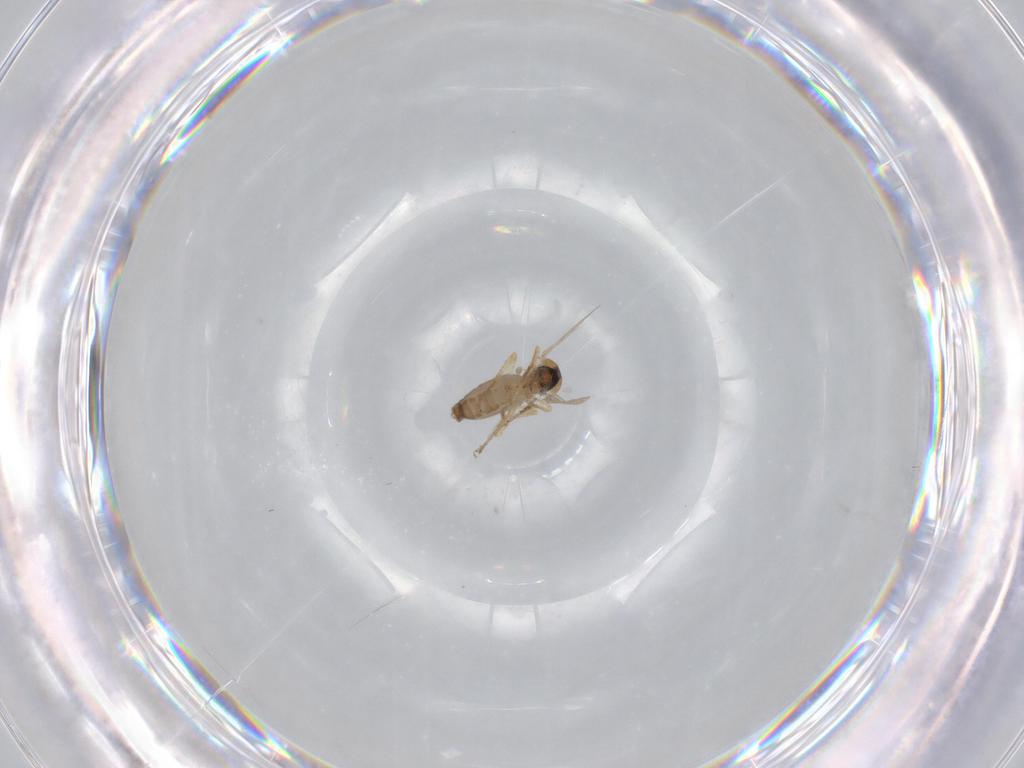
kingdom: Animalia
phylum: Arthropoda
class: Insecta
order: Diptera
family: Ceratopogonidae
